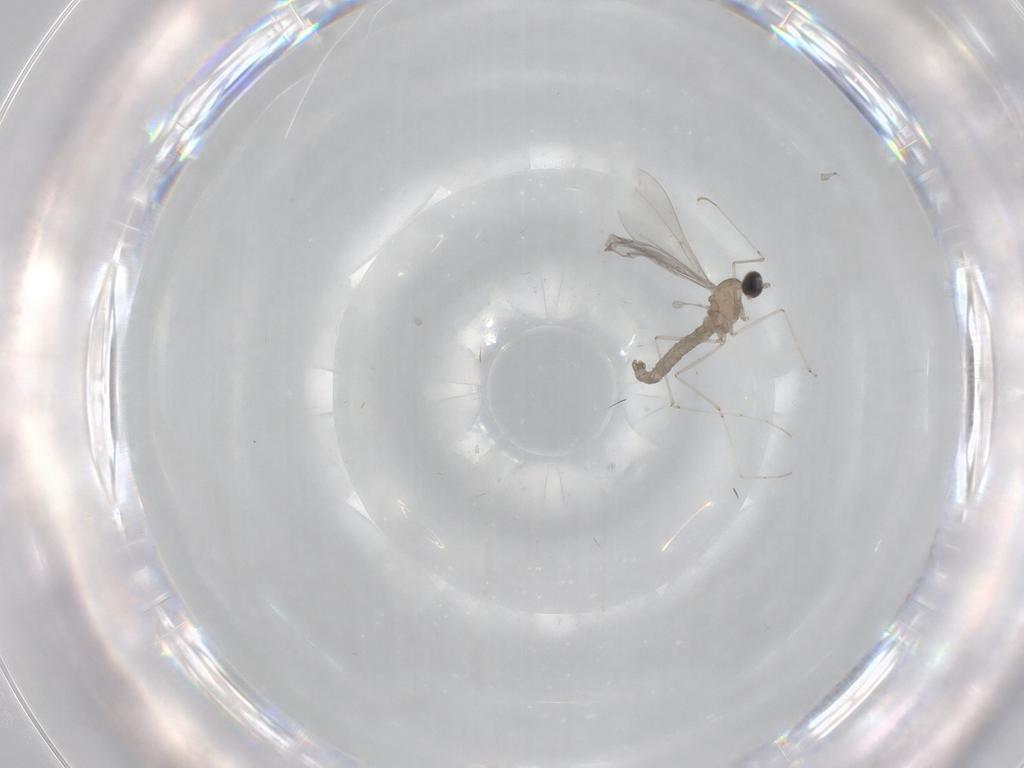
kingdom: Animalia
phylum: Arthropoda
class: Insecta
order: Diptera
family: Cecidomyiidae
